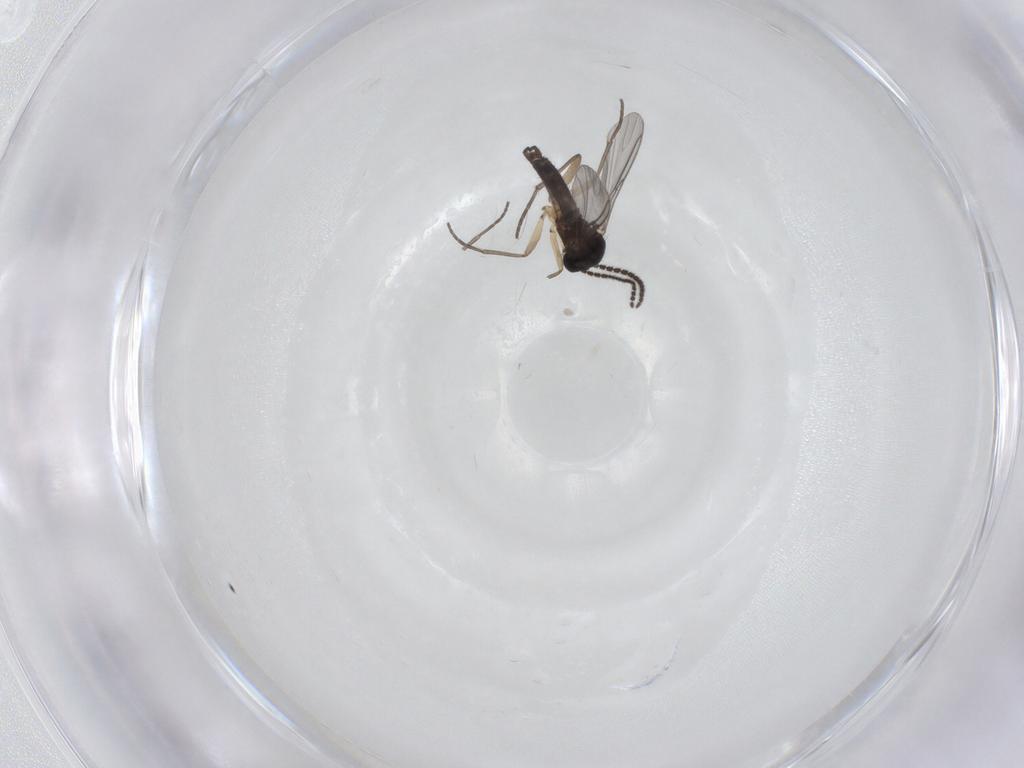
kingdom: Animalia
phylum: Arthropoda
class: Insecta
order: Diptera
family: Sciaridae
